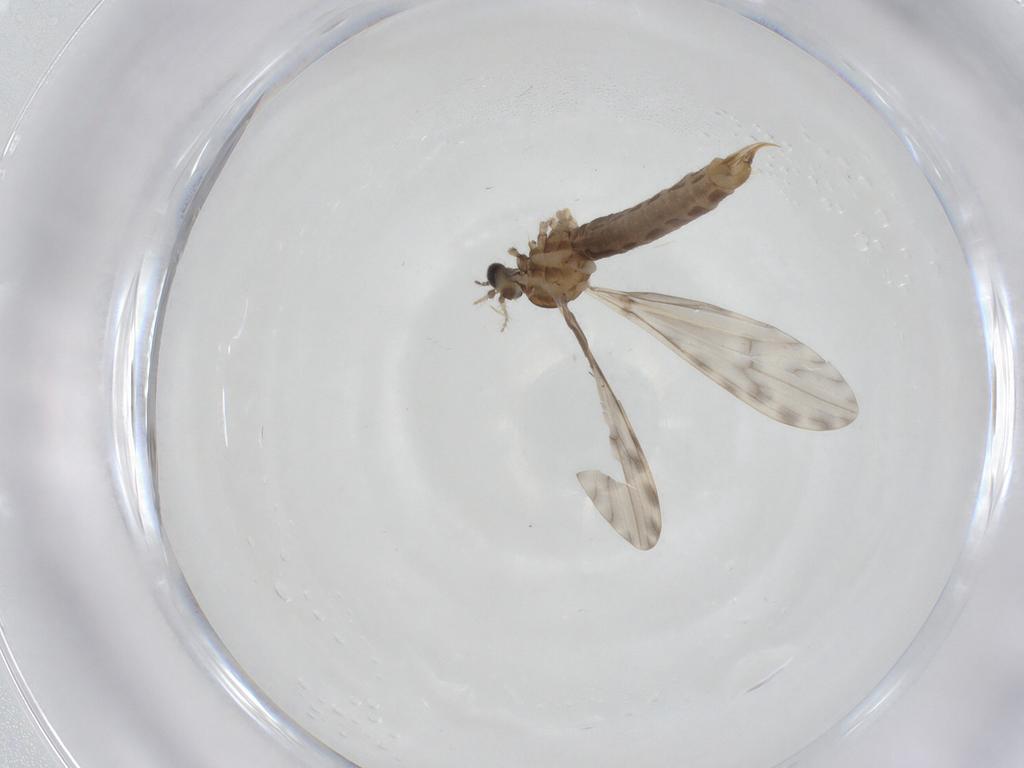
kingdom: Animalia
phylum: Arthropoda
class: Insecta
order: Diptera
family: Limoniidae
